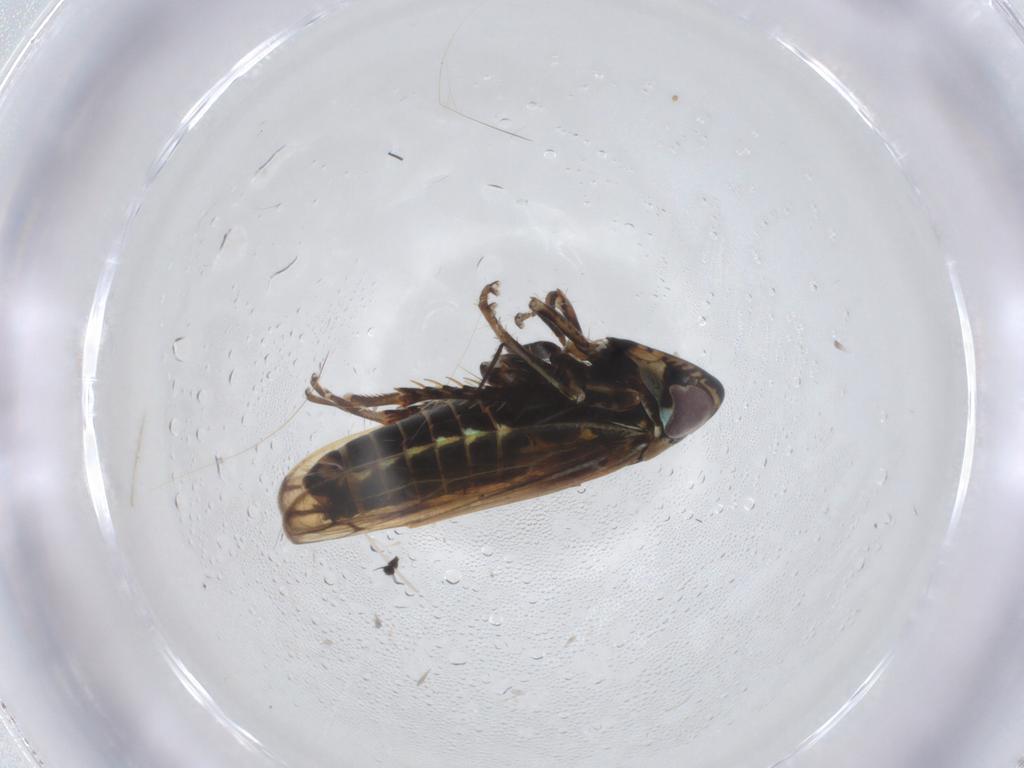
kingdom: Animalia
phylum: Arthropoda
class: Insecta
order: Hemiptera
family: Cicadellidae
